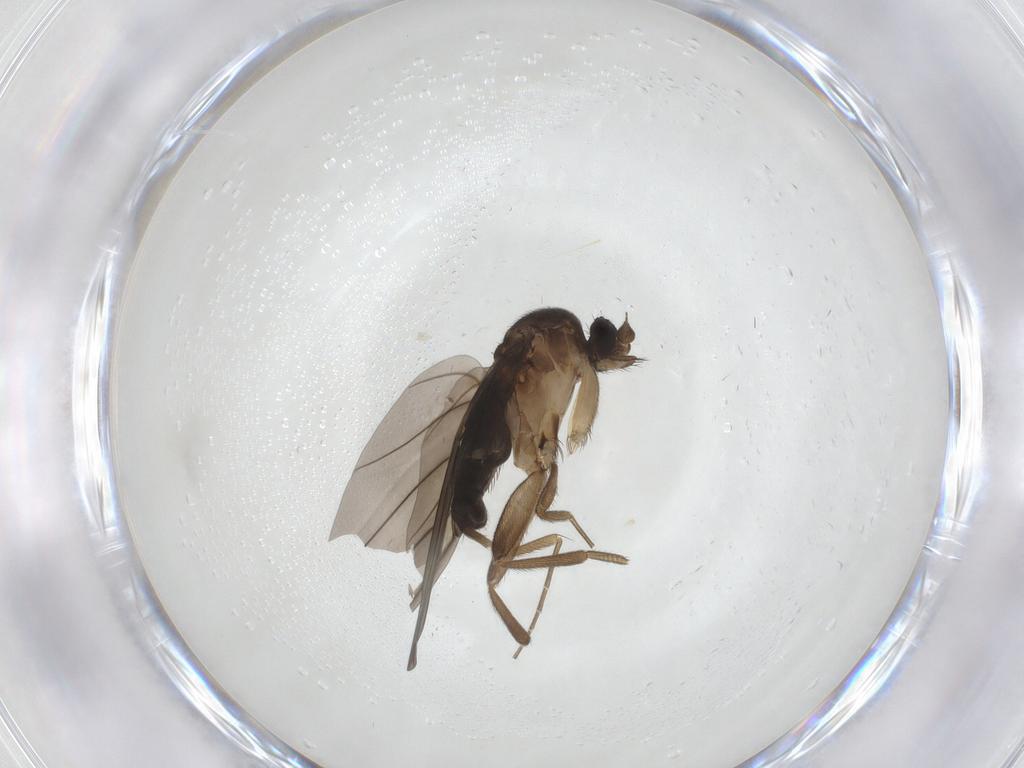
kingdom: Animalia
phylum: Arthropoda
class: Insecta
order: Diptera
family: Phoridae
